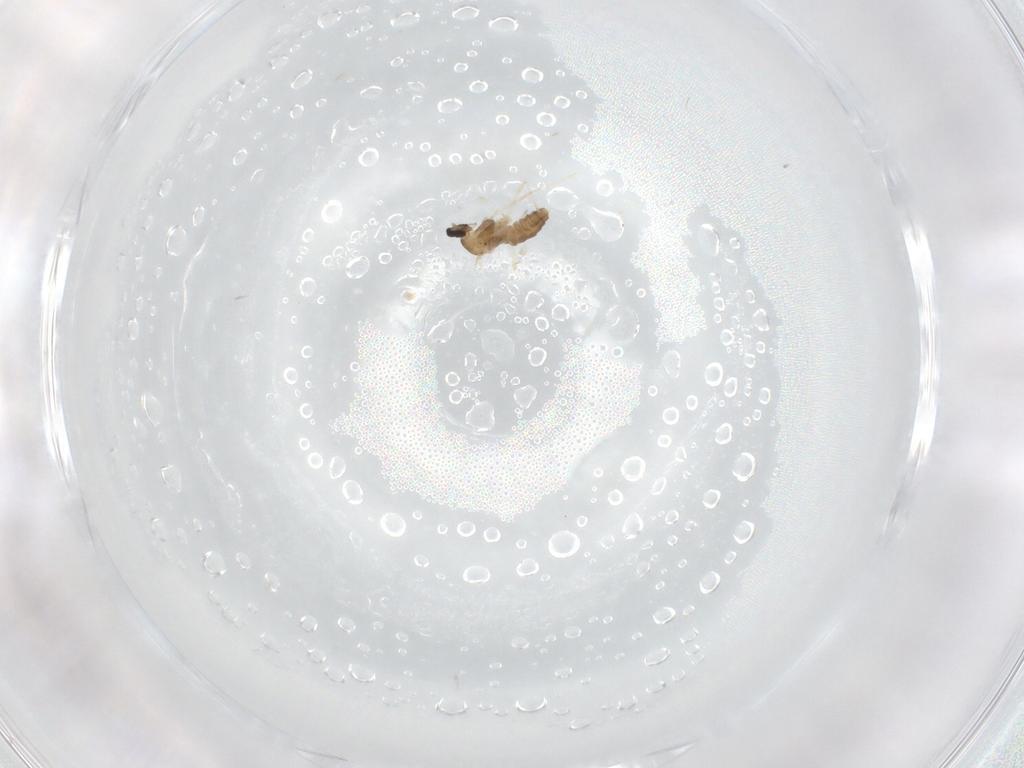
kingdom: Animalia
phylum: Arthropoda
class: Insecta
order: Diptera
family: Cecidomyiidae
